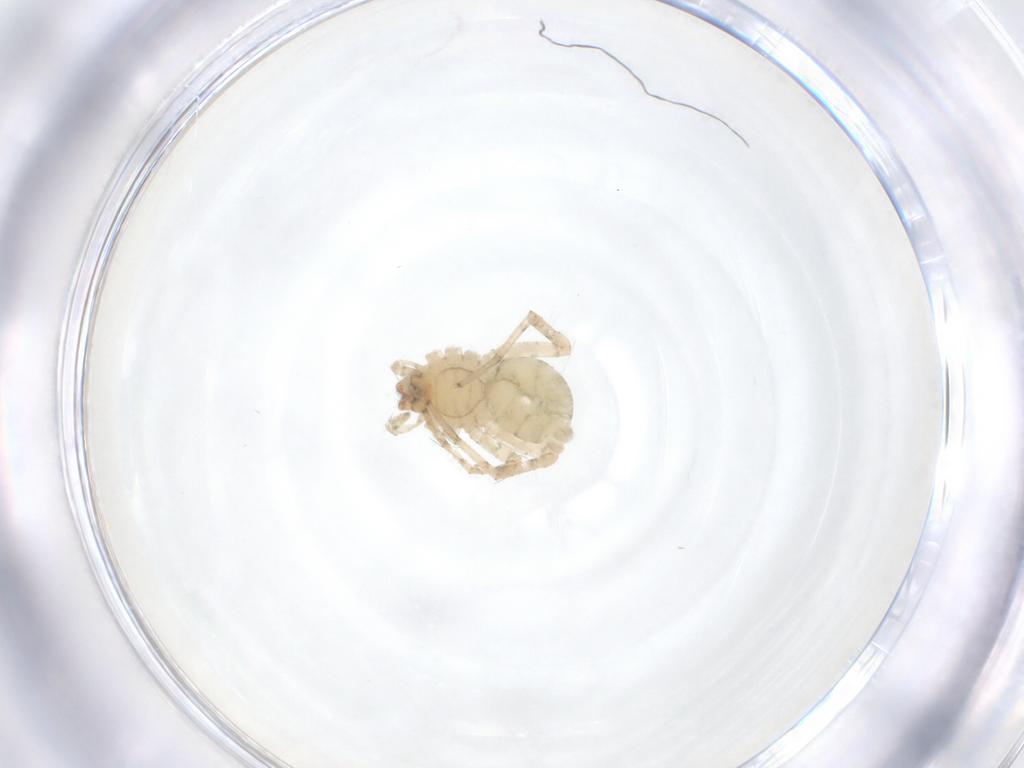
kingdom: Animalia
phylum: Arthropoda
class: Arachnida
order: Araneae
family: Anyphaenidae
